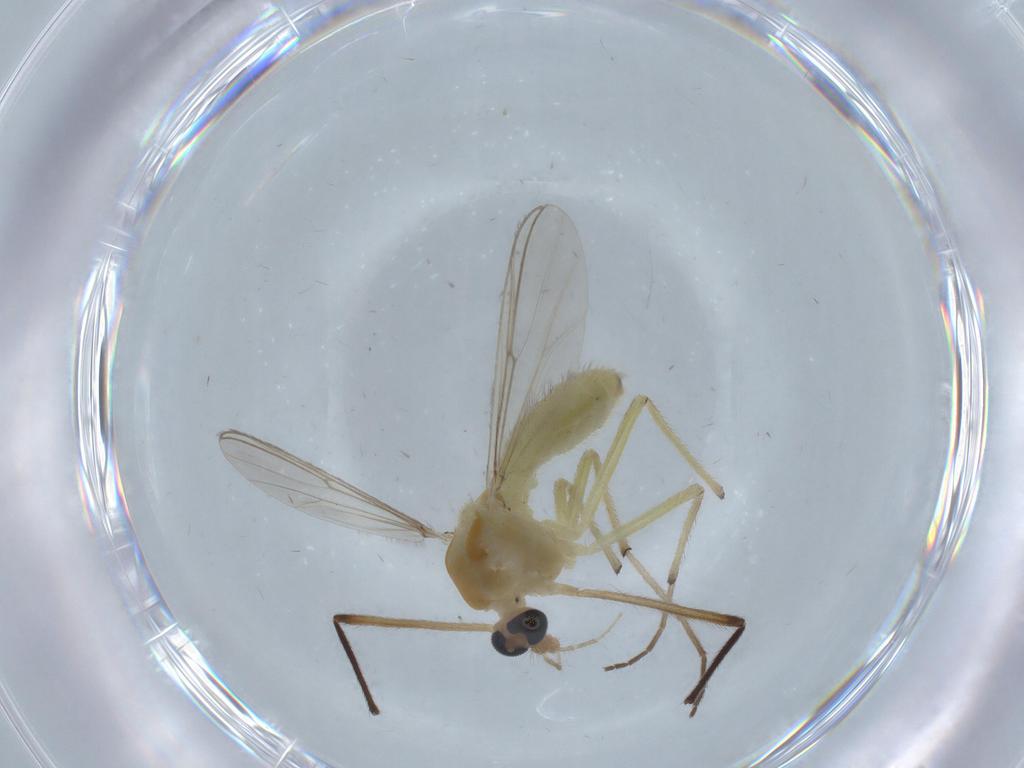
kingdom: Animalia
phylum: Arthropoda
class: Insecta
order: Diptera
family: Chironomidae
